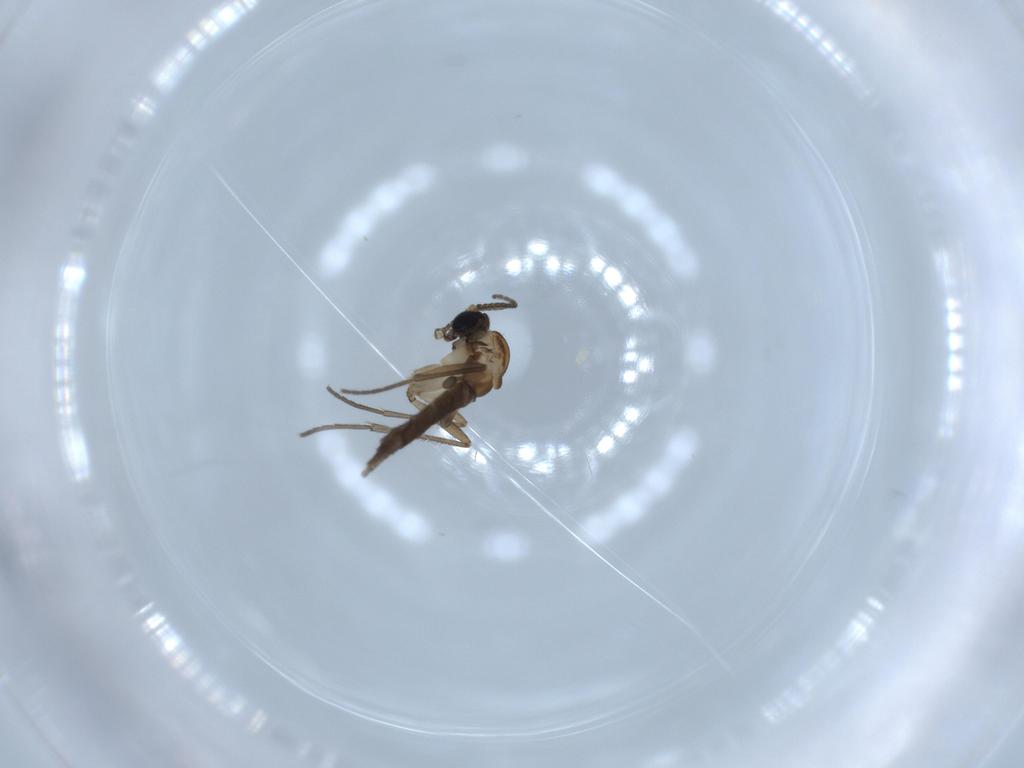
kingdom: Animalia
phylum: Arthropoda
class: Insecta
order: Diptera
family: Sciaridae
